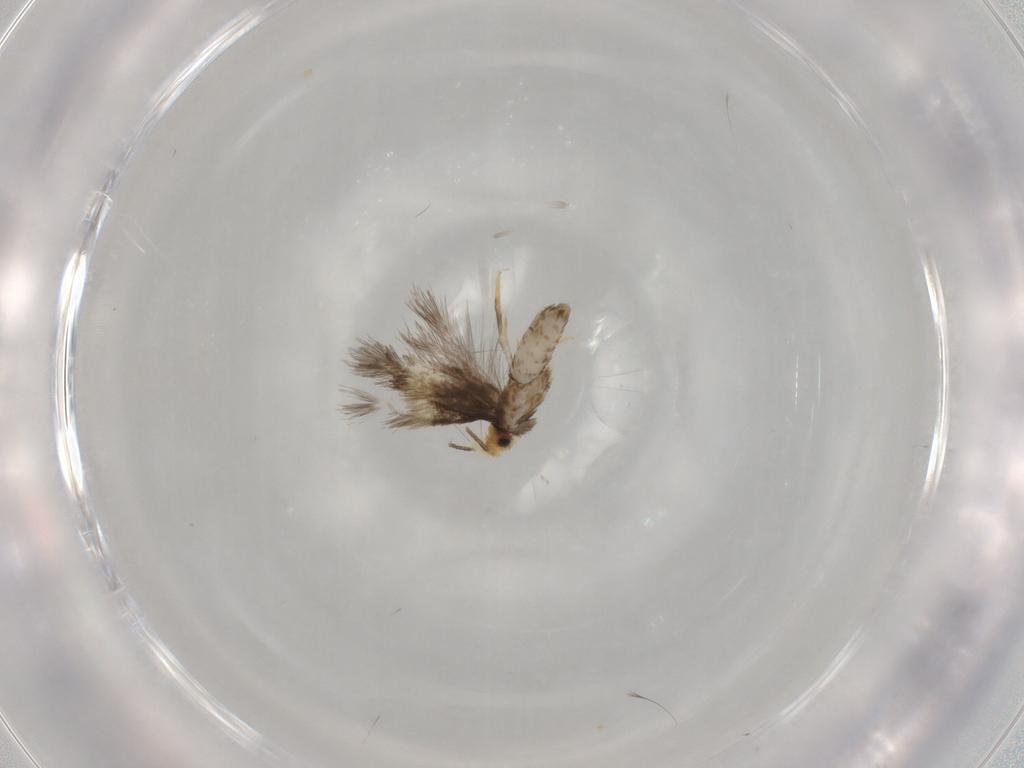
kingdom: Animalia
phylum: Arthropoda
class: Insecta
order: Lepidoptera
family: Nepticulidae
